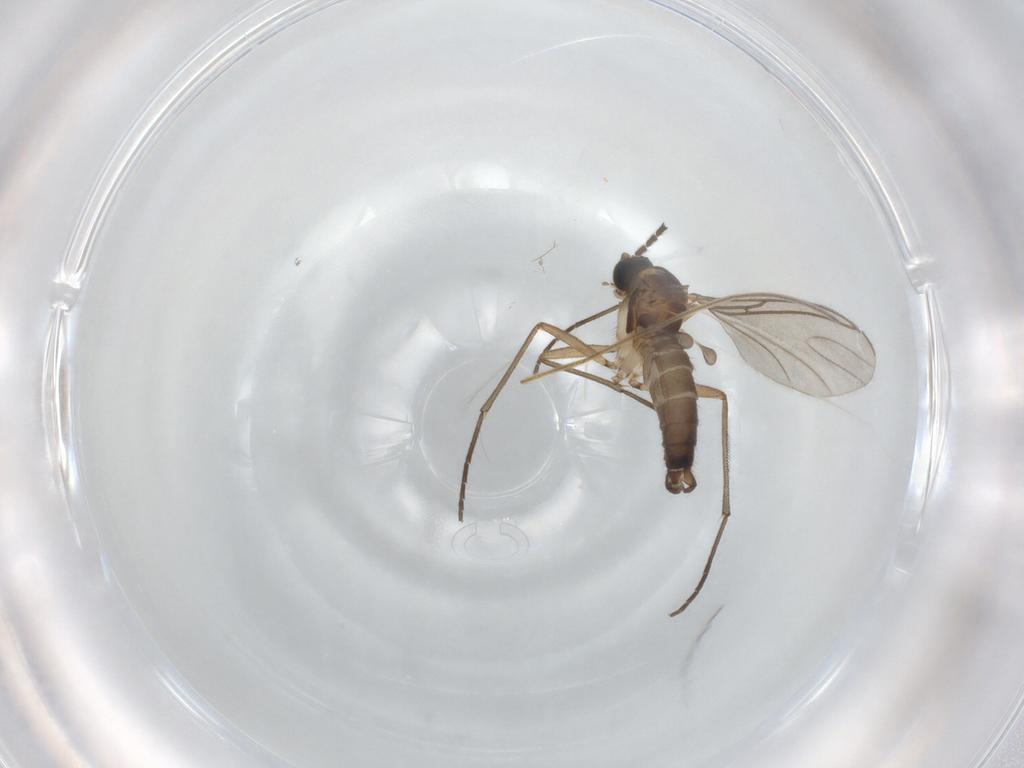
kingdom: Animalia
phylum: Arthropoda
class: Insecta
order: Diptera
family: Sciaridae
